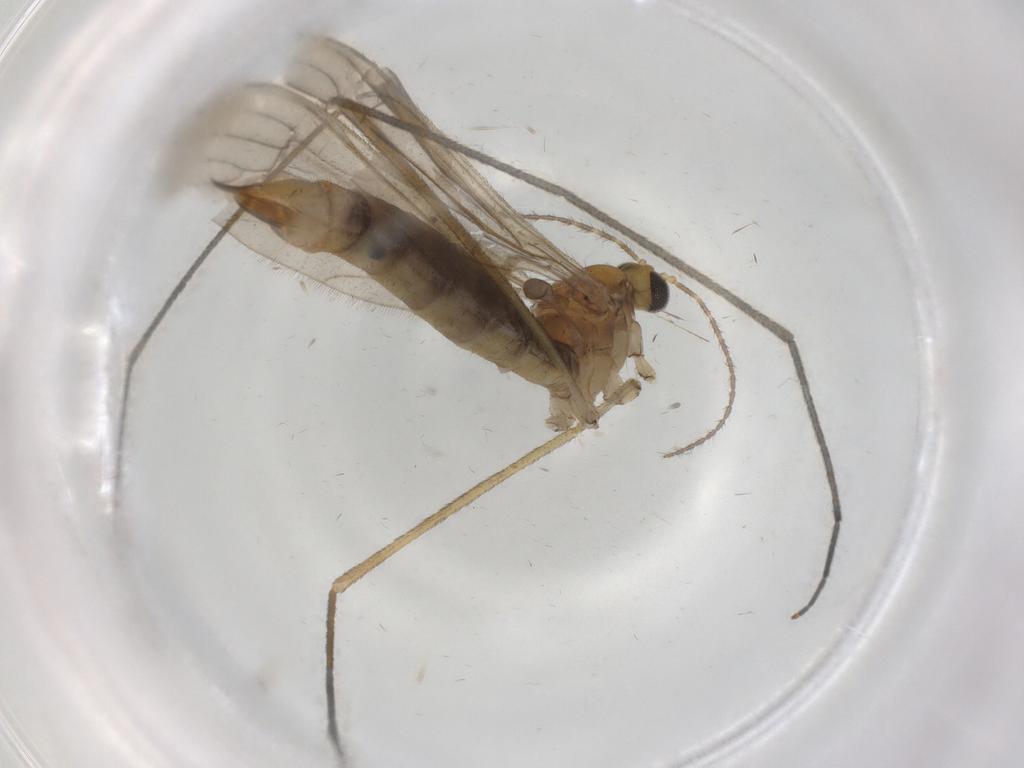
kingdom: Animalia
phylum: Arthropoda
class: Insecta
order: Diptera
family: Limoniidae
